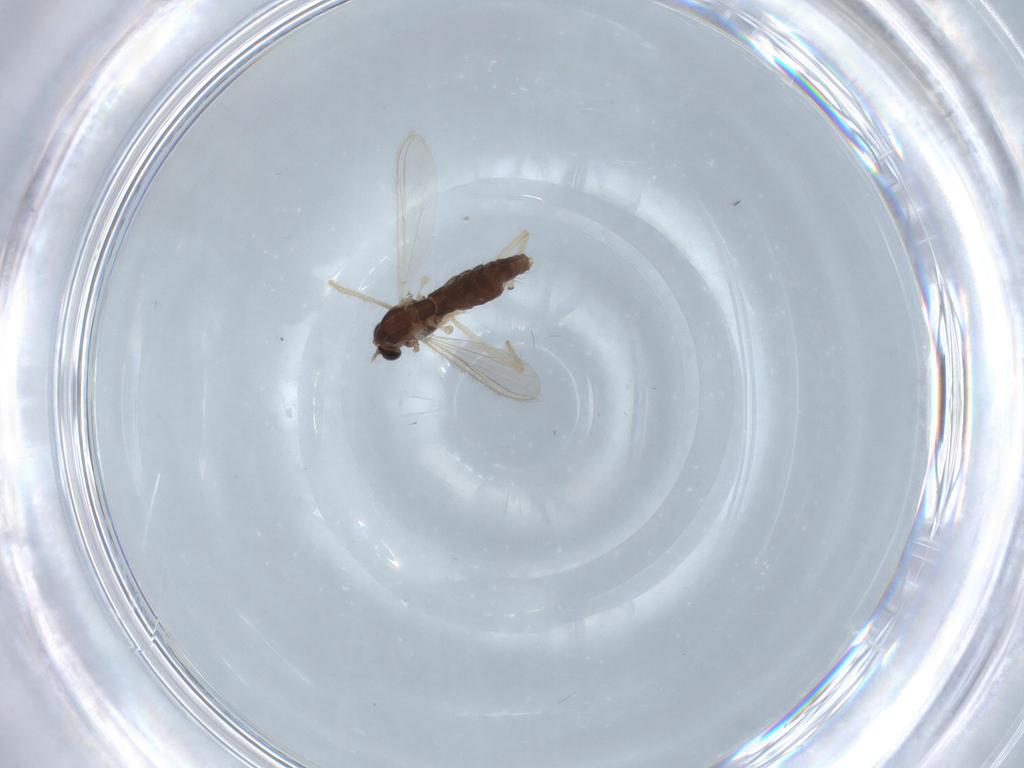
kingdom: Animalia
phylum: Arthropoda
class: Insecta
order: Diptera
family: Chironomidae
